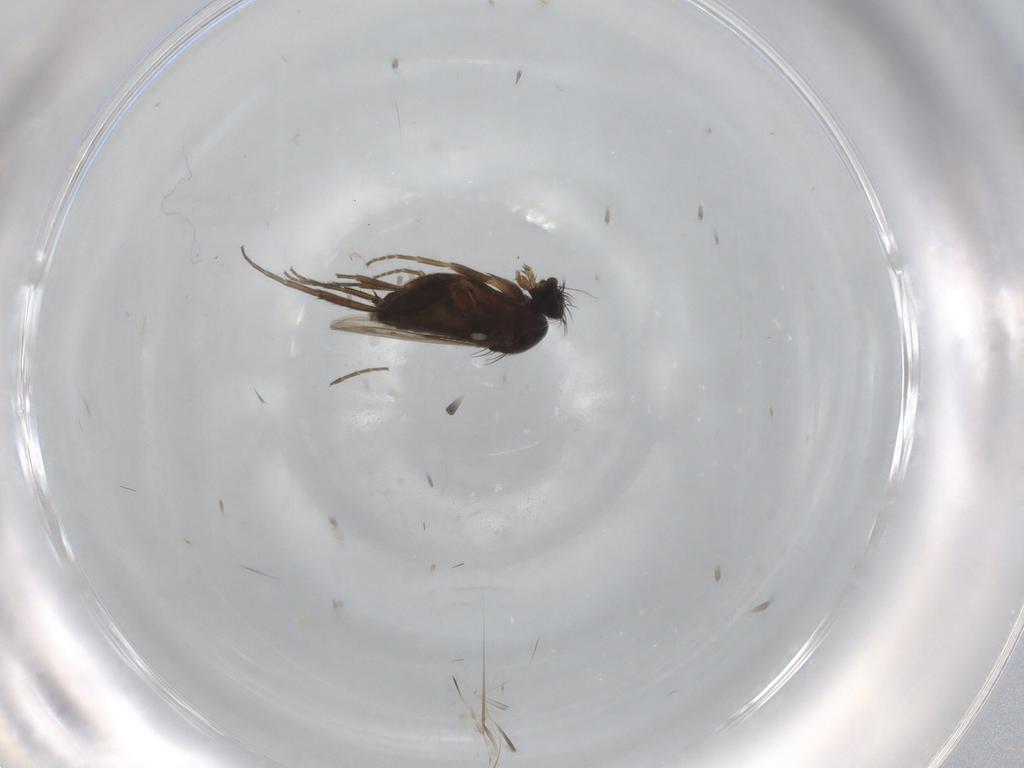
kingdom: Animalia
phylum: Arthropoda
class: Insecta
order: Diptera
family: Phoridae
